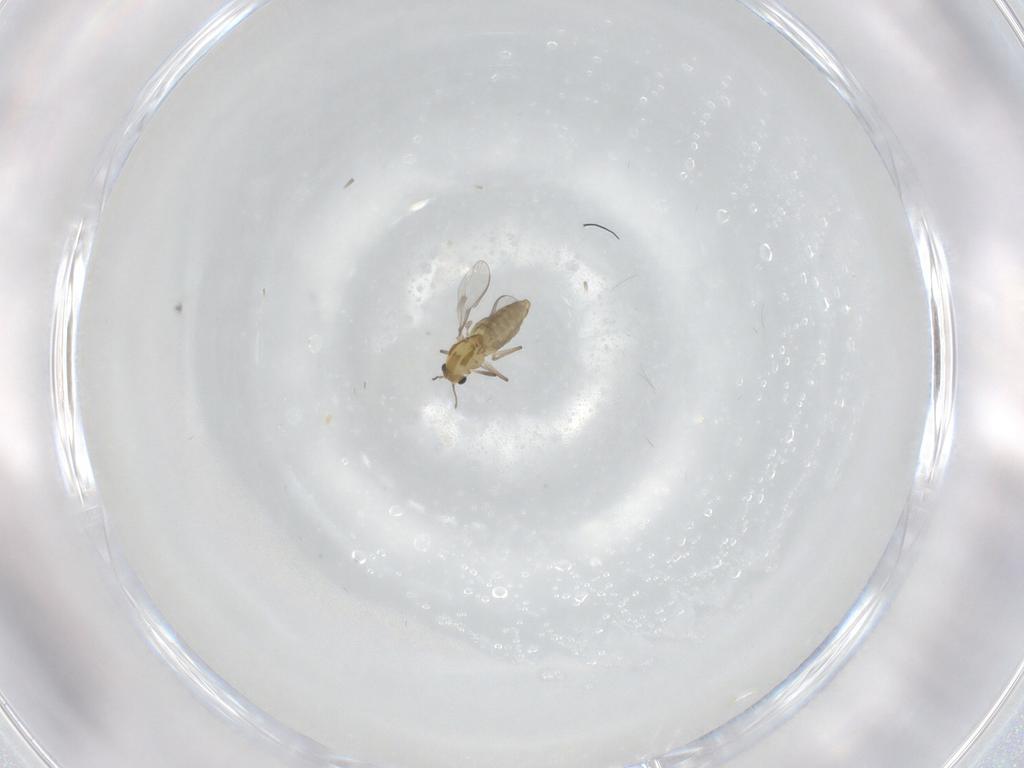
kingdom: Animalia
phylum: Arthropoda
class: Insecta
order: Diptera
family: Chironomidae
